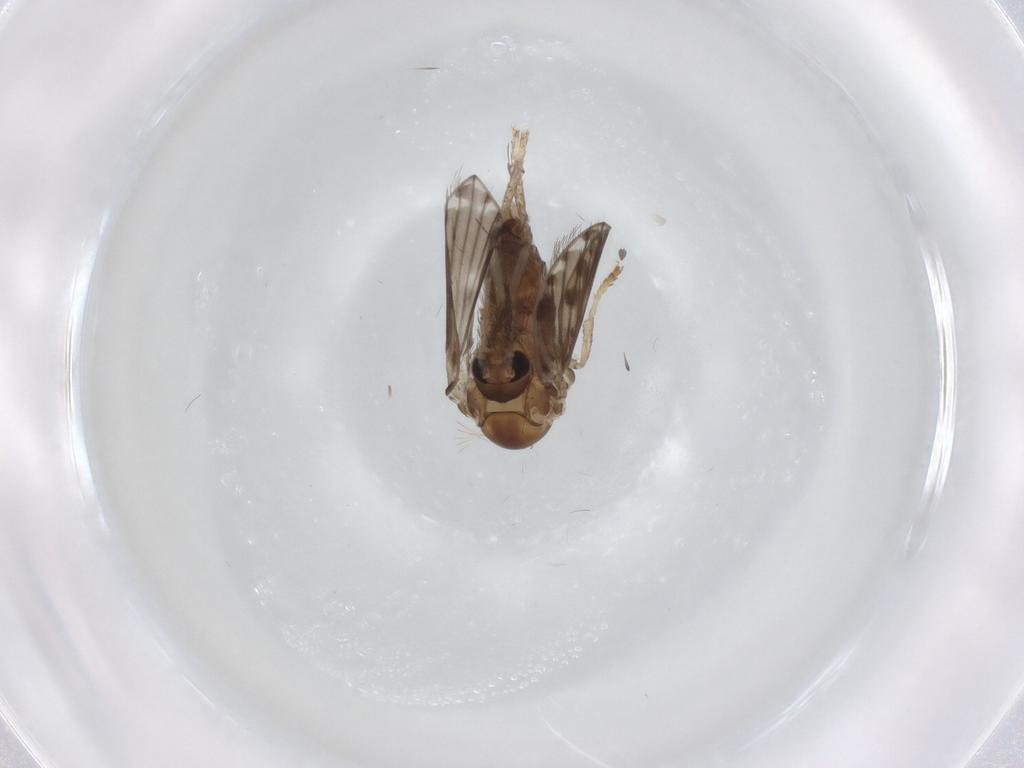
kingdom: Animalia
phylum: Arthropoda
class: Insecta
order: Diptera
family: Psychodidae
